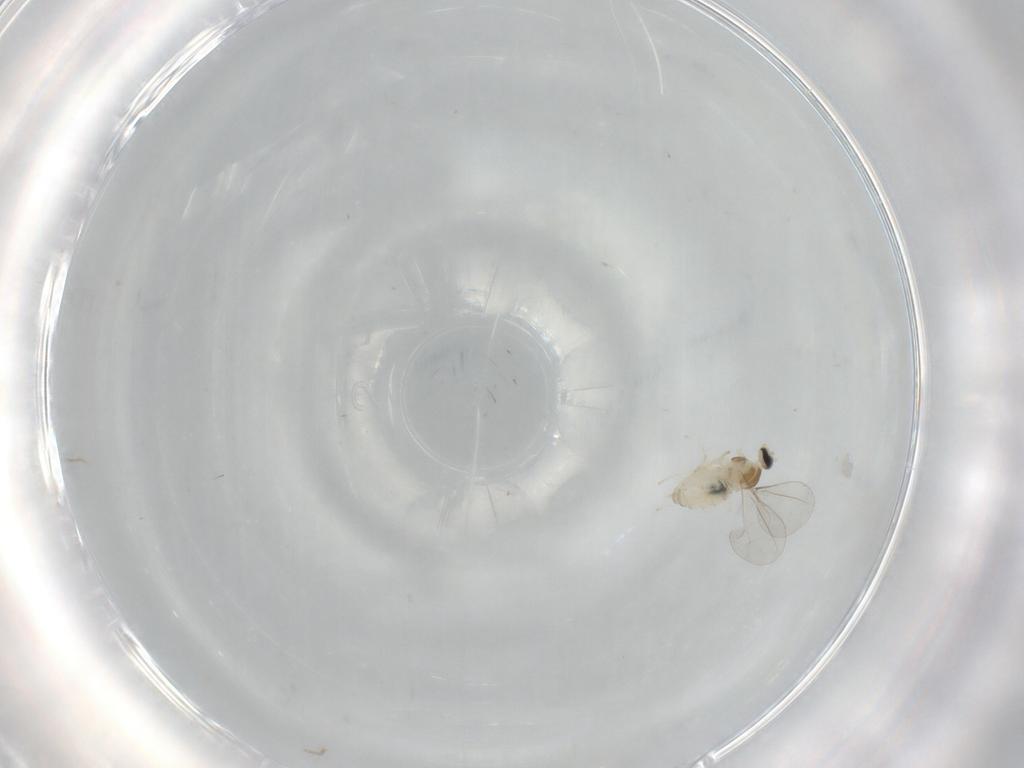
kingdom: Animalia
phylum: Arthropoda
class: Insecta
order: Diptera
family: Cecidomyiidae
